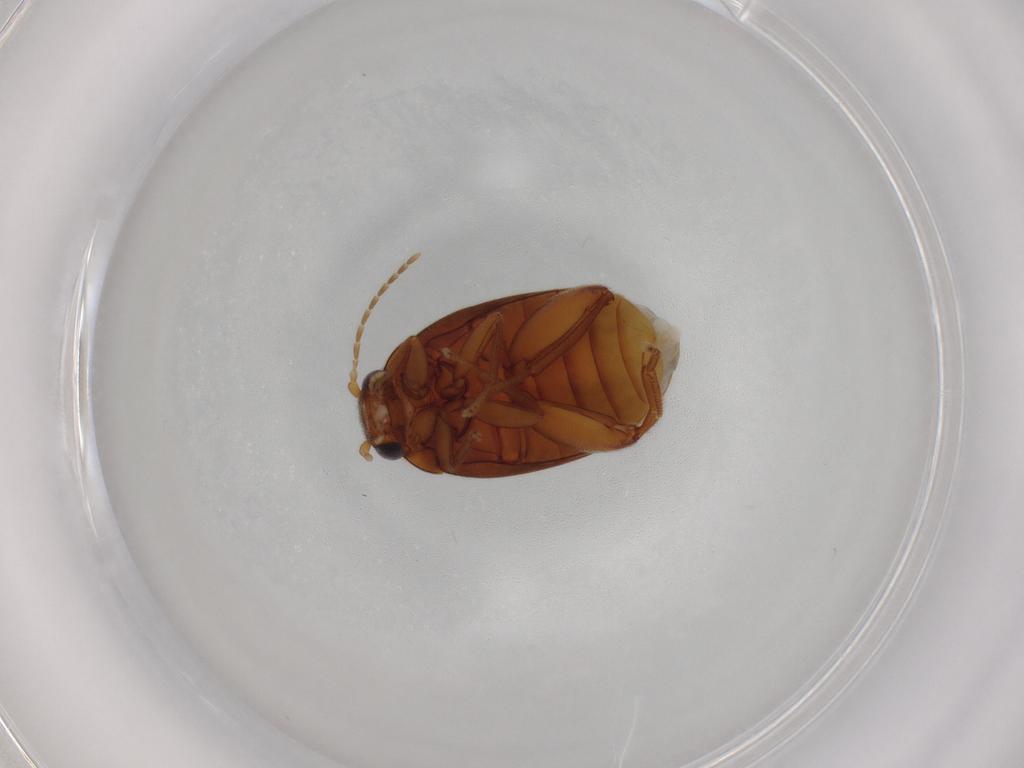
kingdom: Animalia
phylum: Arthropoda
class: Insecta
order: Coleoptera
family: Scirtidae
